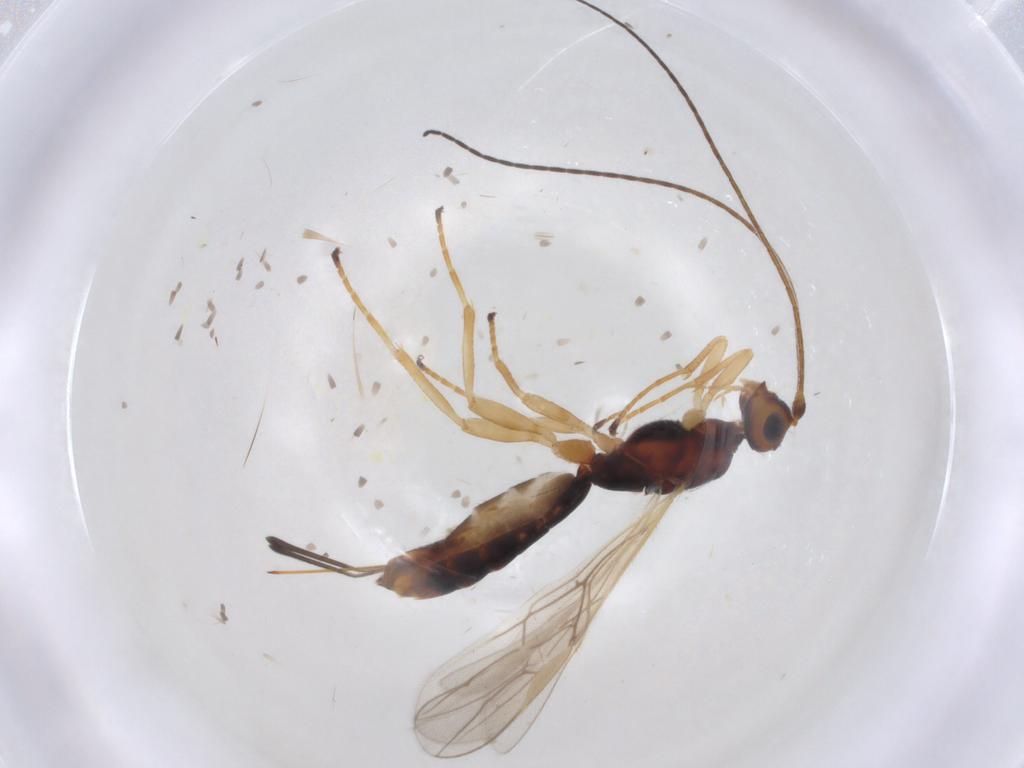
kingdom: Animalia
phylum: Arthropoda
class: Insecta
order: Hymenoptera
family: Braconidae
